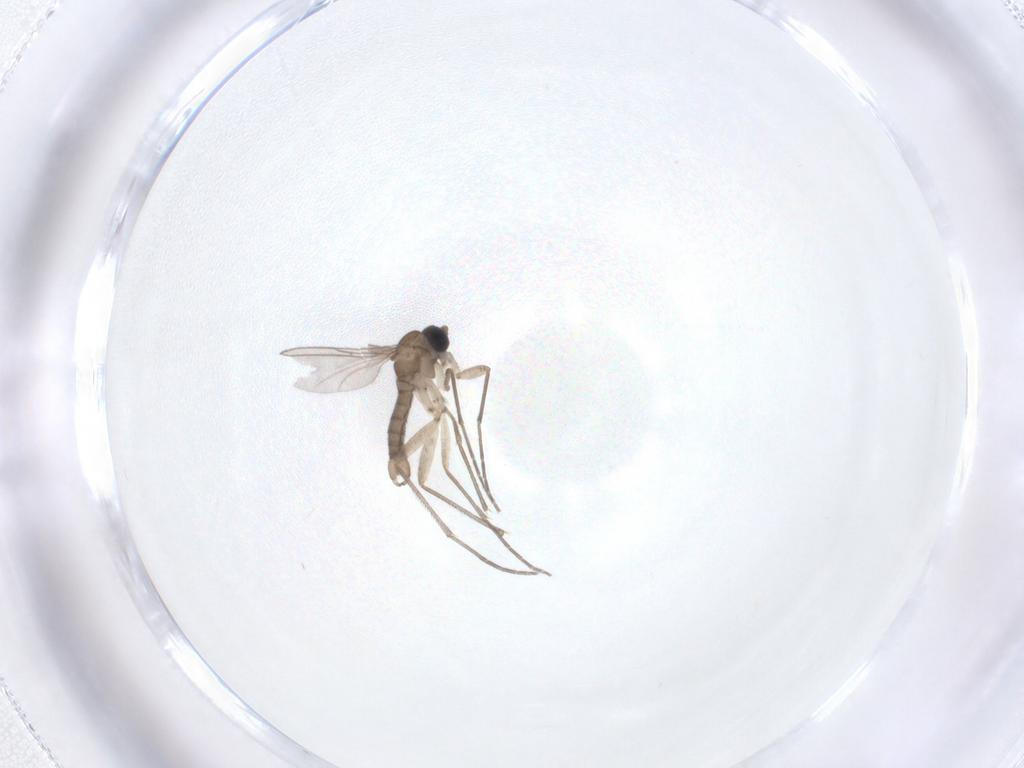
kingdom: Animalia
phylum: Arthropoda
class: Insecta
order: Diptera
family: Sciaridae
